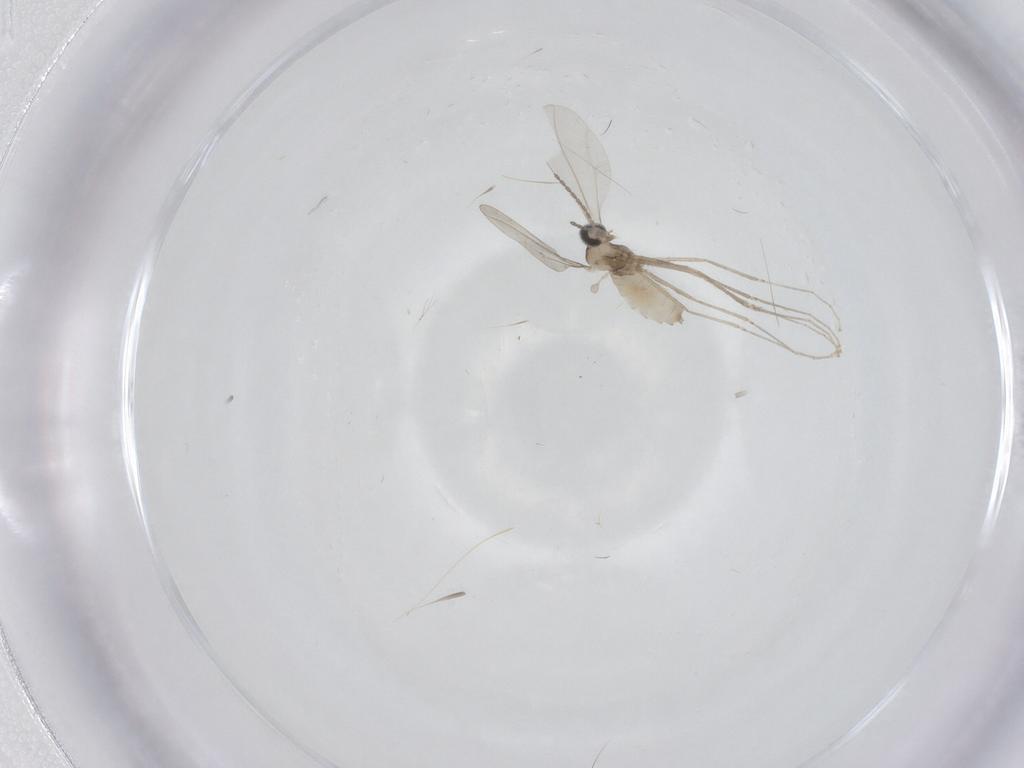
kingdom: Animalia
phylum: Arthropoda
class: Insecta
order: Diptera
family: Cecidomyiidae
